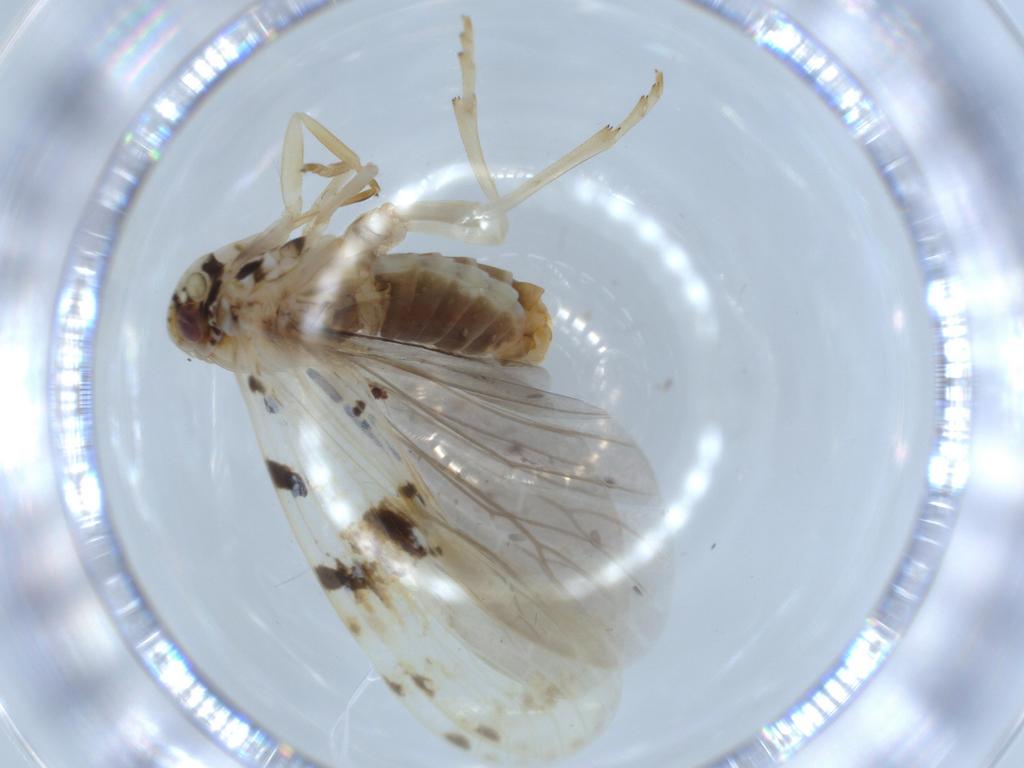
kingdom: Animalia
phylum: Arthropoda
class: Insecta
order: Hemiptera
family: Achilidae
